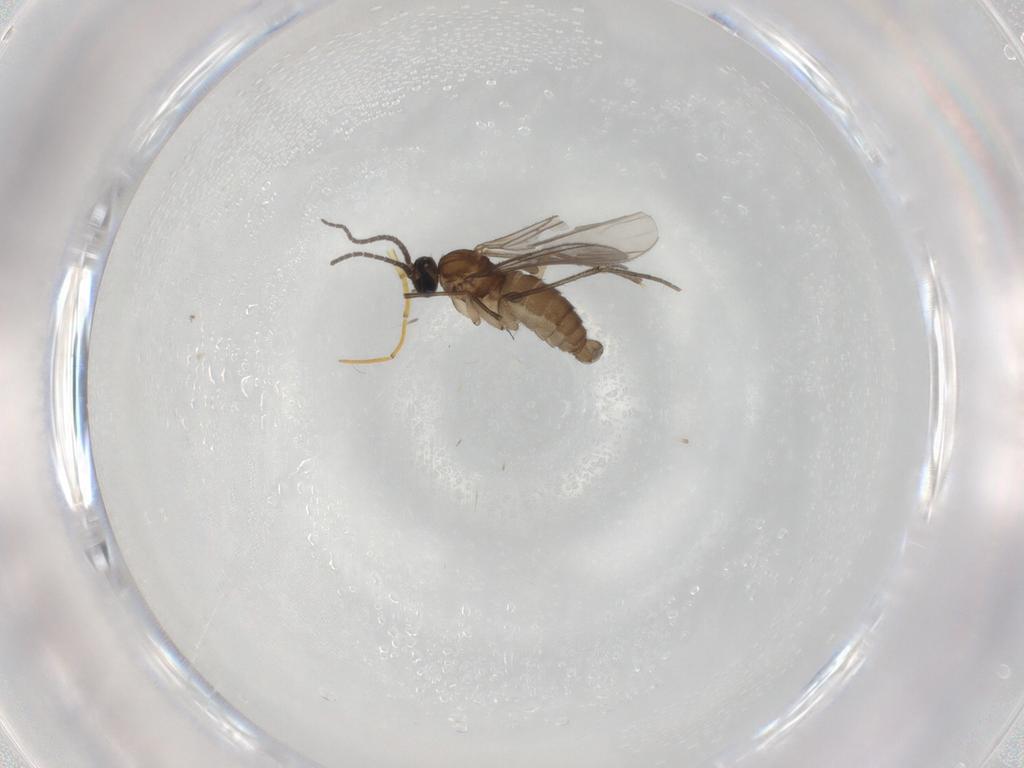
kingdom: Animalia
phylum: Arthropoda
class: Insecta
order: Diptera
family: Sciaridae
